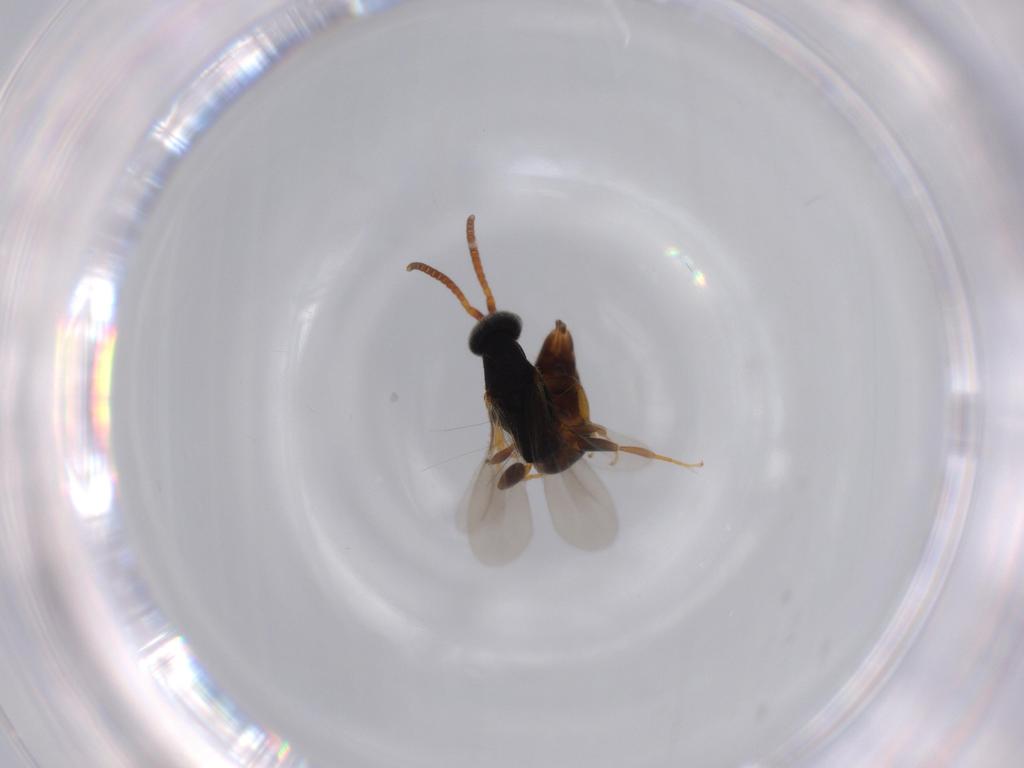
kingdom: Animalia
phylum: Arthropoda
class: Insecta
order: Hymenoptera
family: Bethylidae
